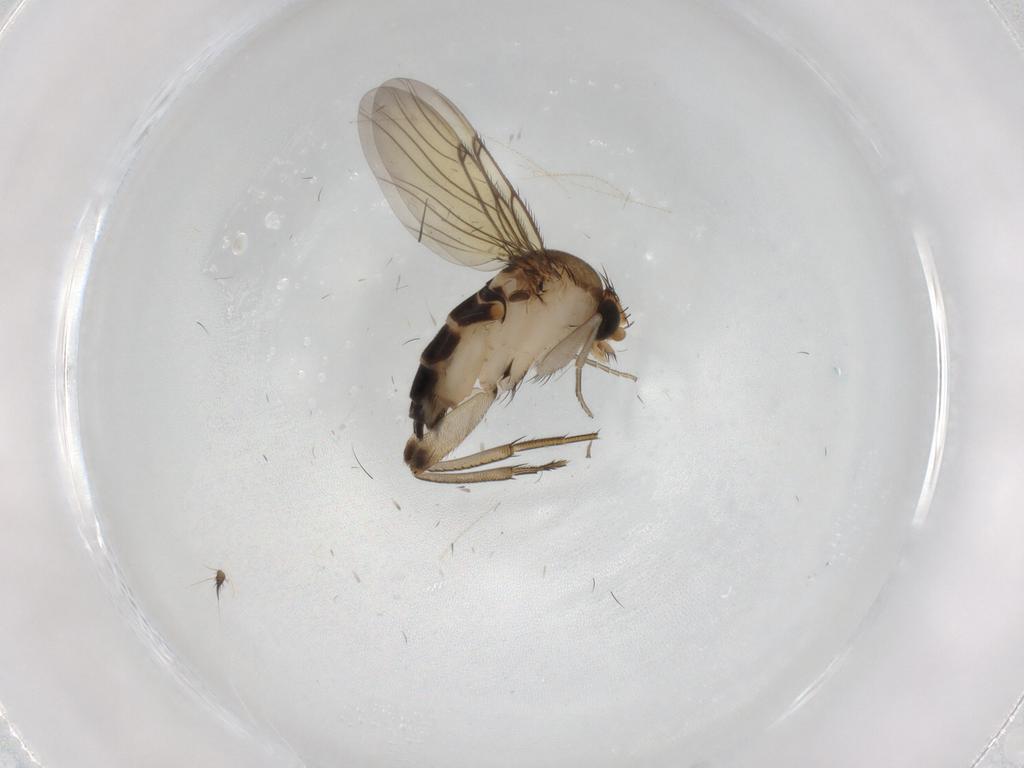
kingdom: Animalia
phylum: Arthropoda
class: Insecta
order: Diptera
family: Phoridae
